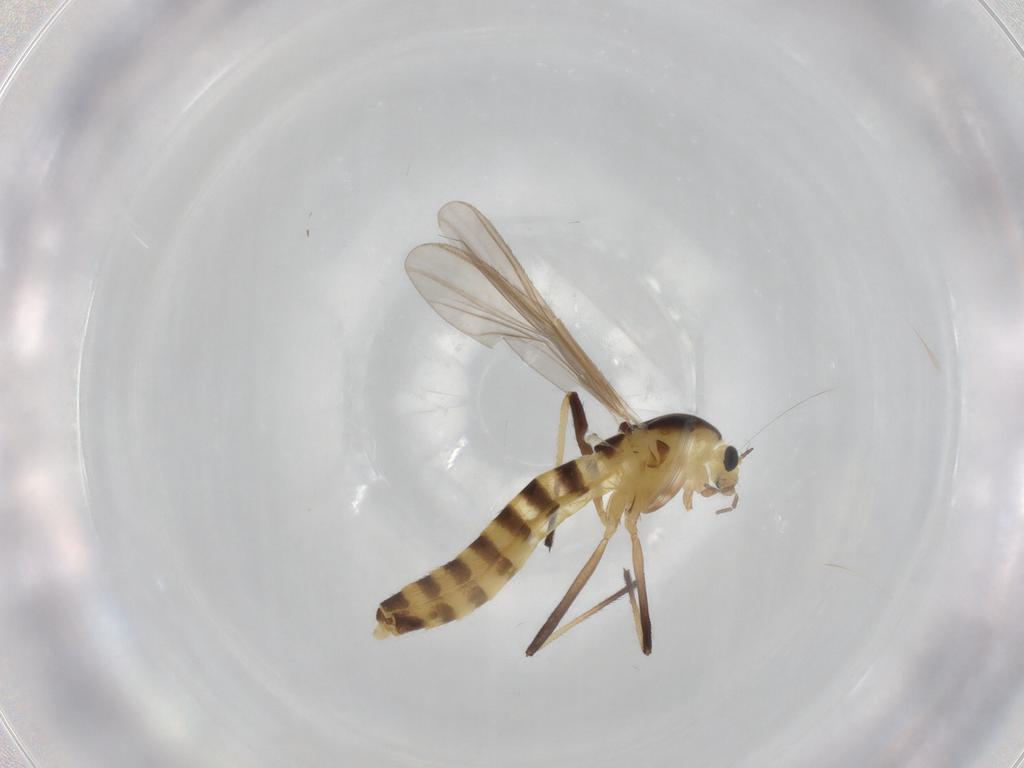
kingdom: Animalia
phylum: Arthropoda
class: Insecta
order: Diptera
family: Chironomidae
